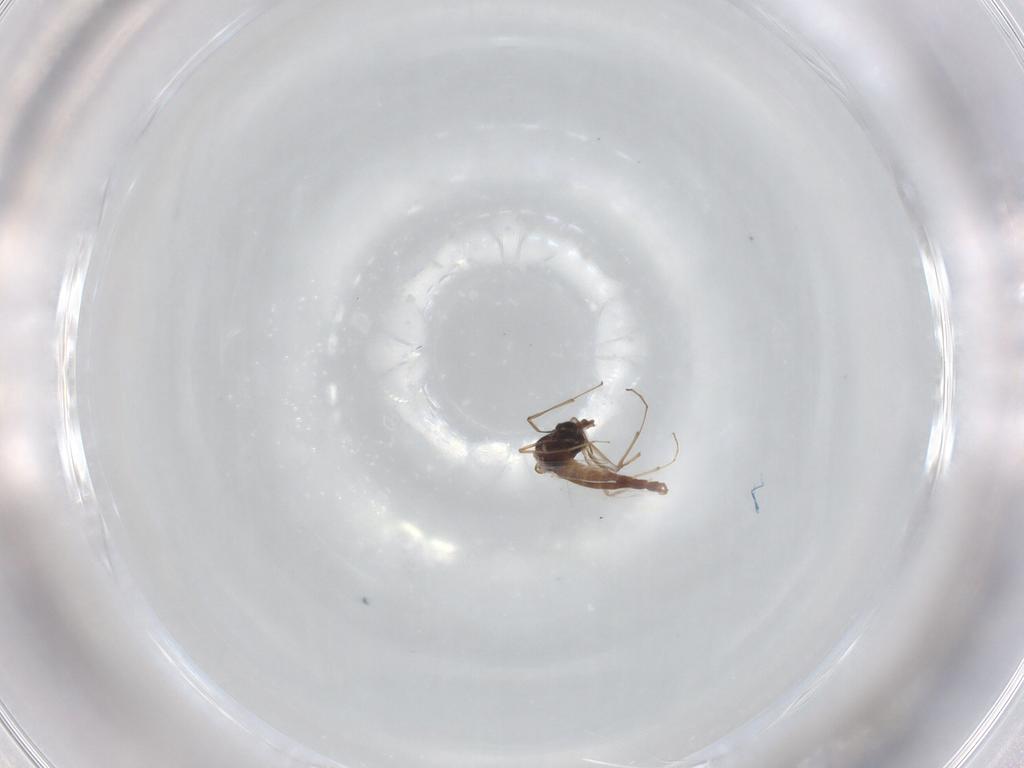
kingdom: Animalia
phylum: Arthropoda
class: Insecta
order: Diptera
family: Chironomidae
